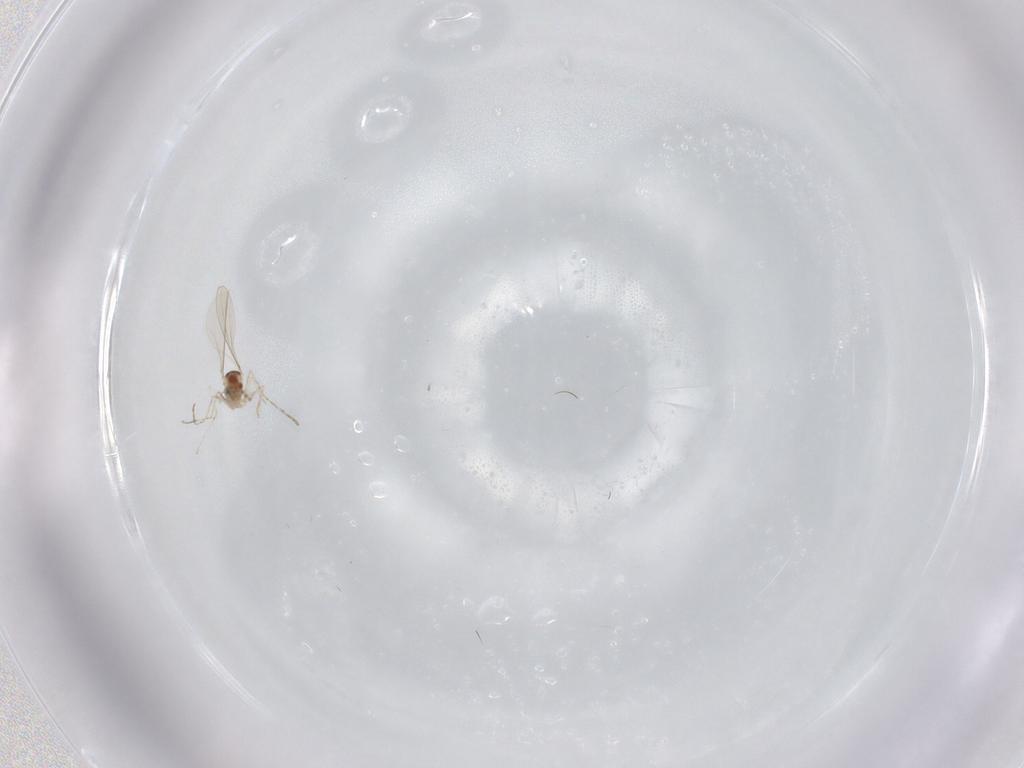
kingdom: Animalia
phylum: Arthropoda
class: Insecta
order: Diptera
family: Cecidomyiidae
